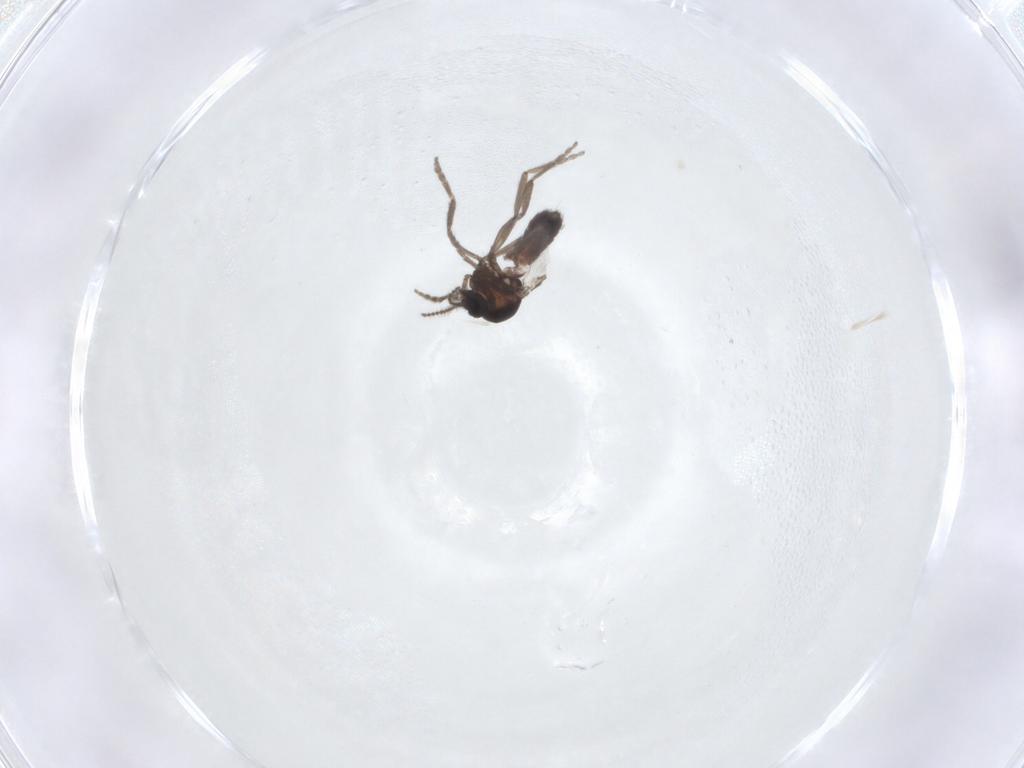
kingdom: Animalia
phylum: Arthropoda
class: Insecta
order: Diptera
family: Ceratopogonidae
